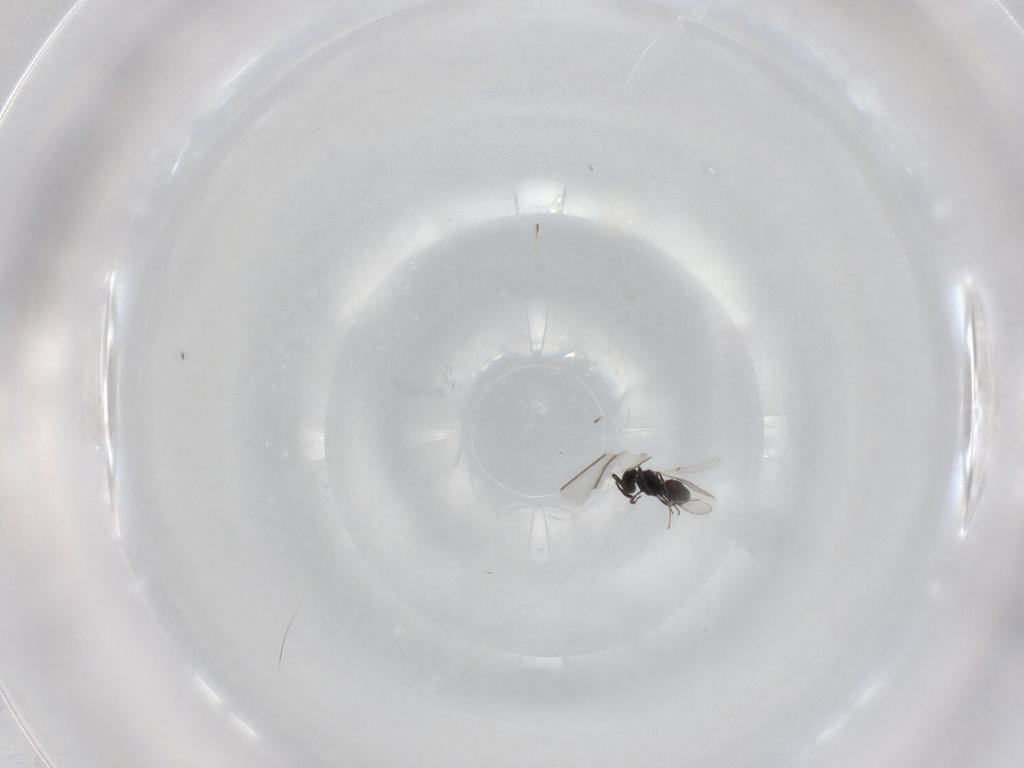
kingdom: Animalia
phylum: Arthropoda
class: Insecta
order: Hymenoptera
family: Scelionidae
